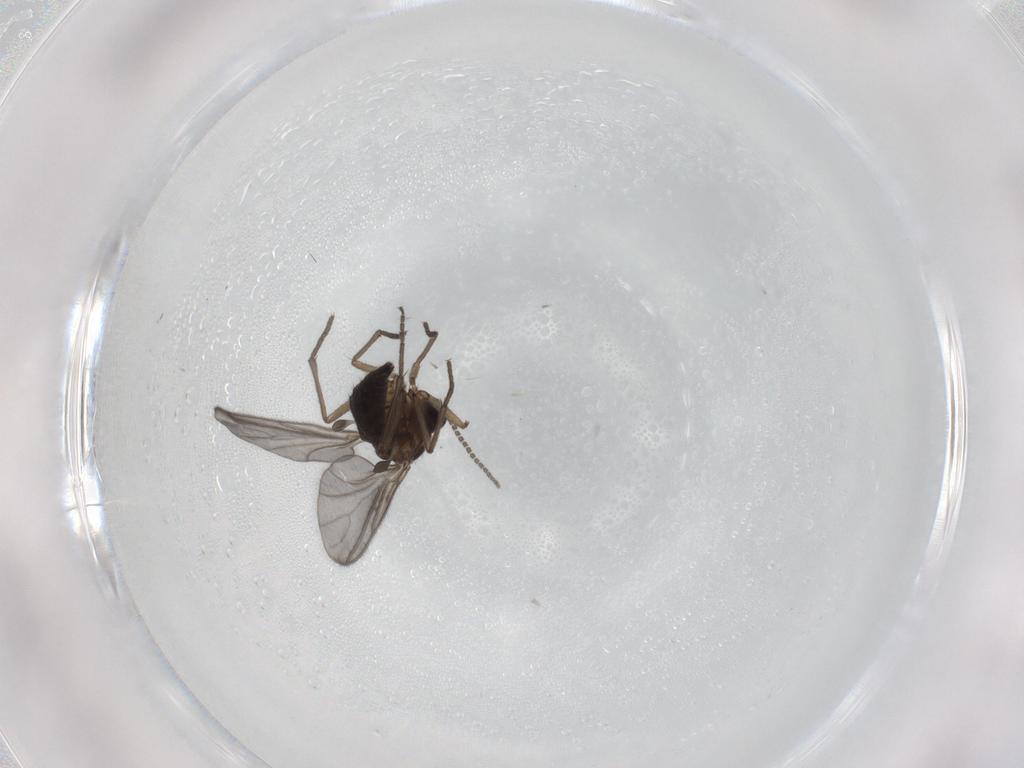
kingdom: Animalia
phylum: Arthropoda
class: Insecta
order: Diptera
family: Sciaridae
